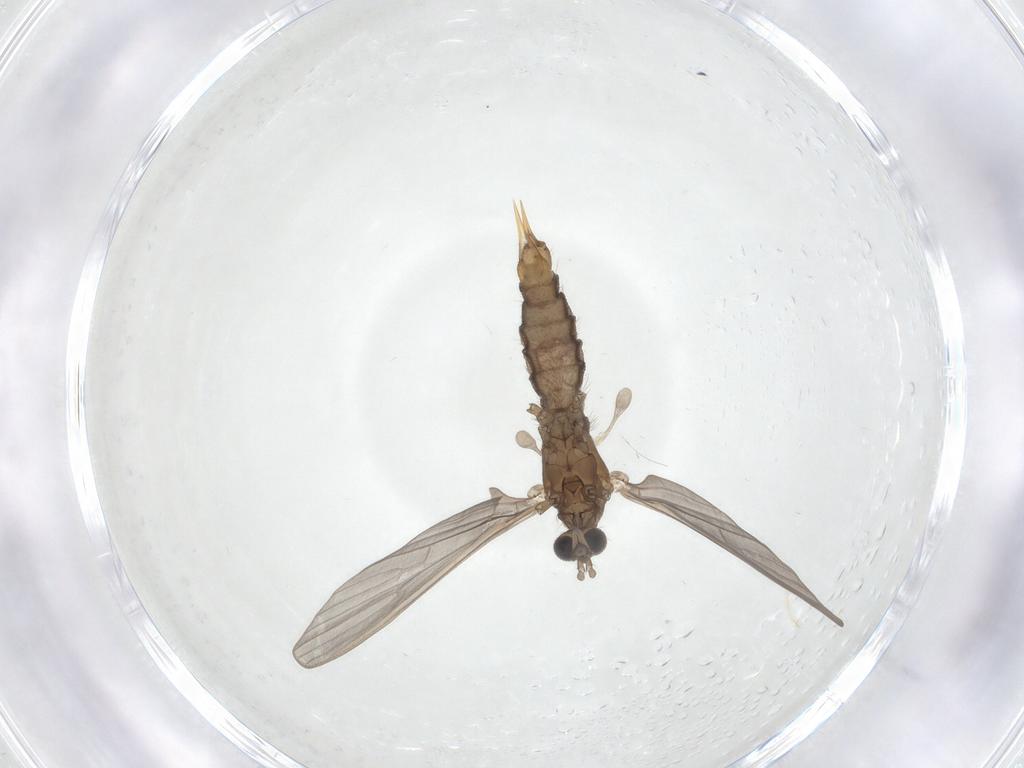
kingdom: Animalia
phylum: Arthropoda
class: Insecta
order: Diptera
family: Limoniidae
